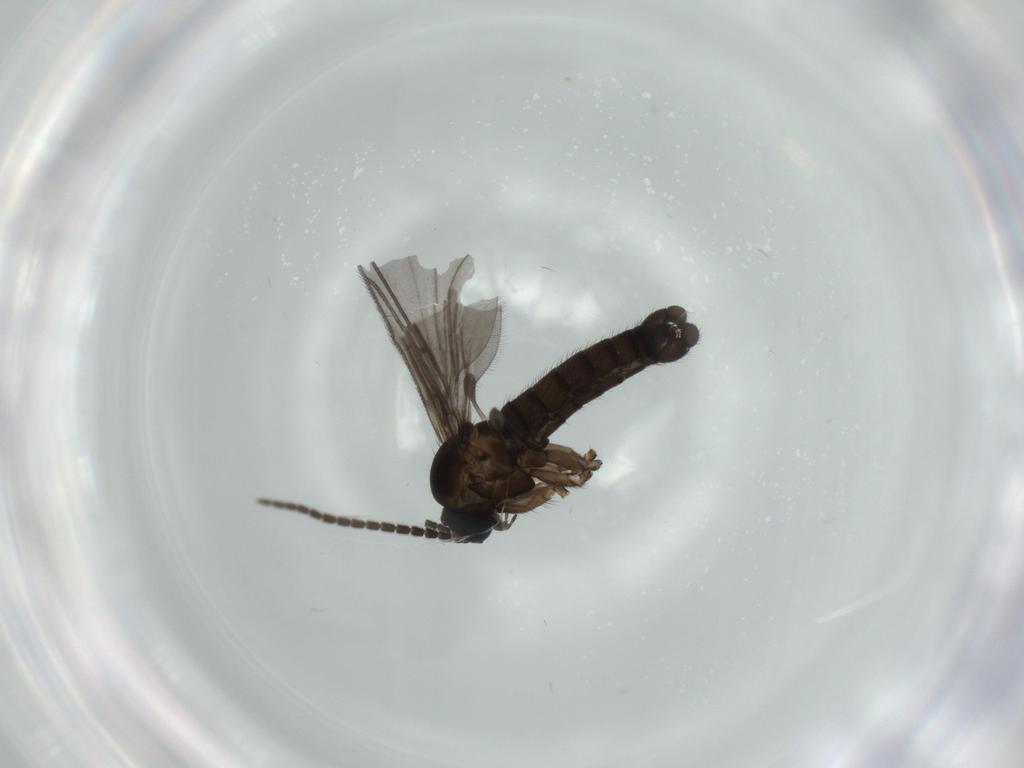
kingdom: Animalia
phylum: Arthropoda
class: Insecta
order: Diptera
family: Sciaridae
